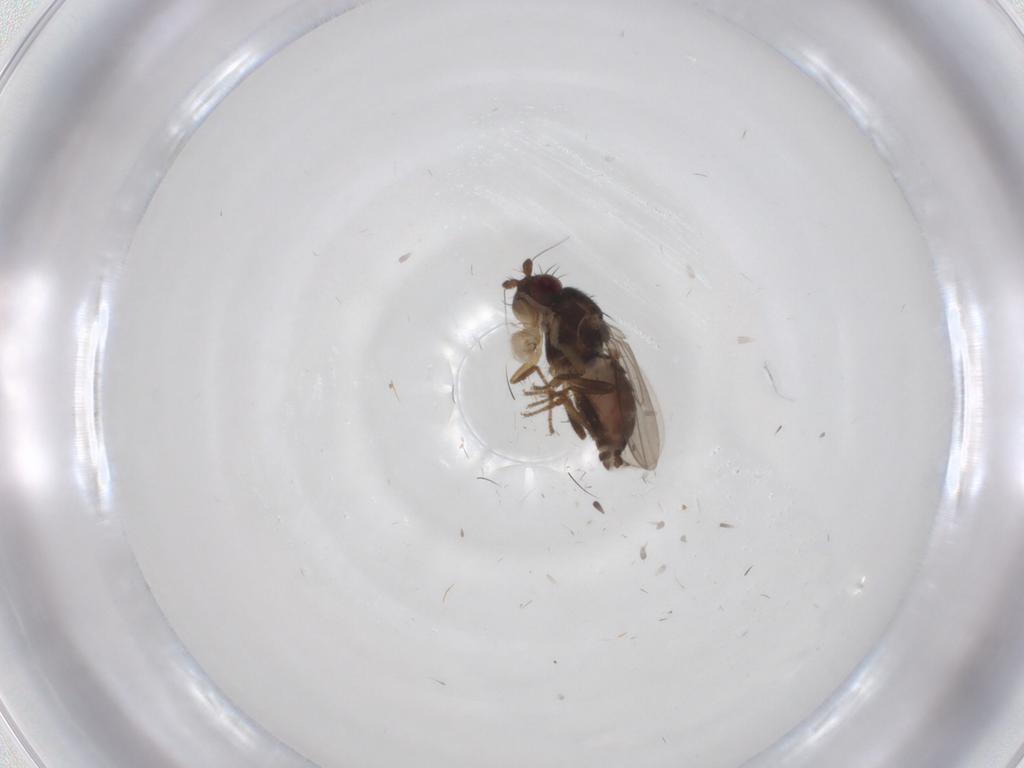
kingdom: Animalia
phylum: Arthropoda
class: Insecta
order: Diptera
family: Sphaeroceridae
